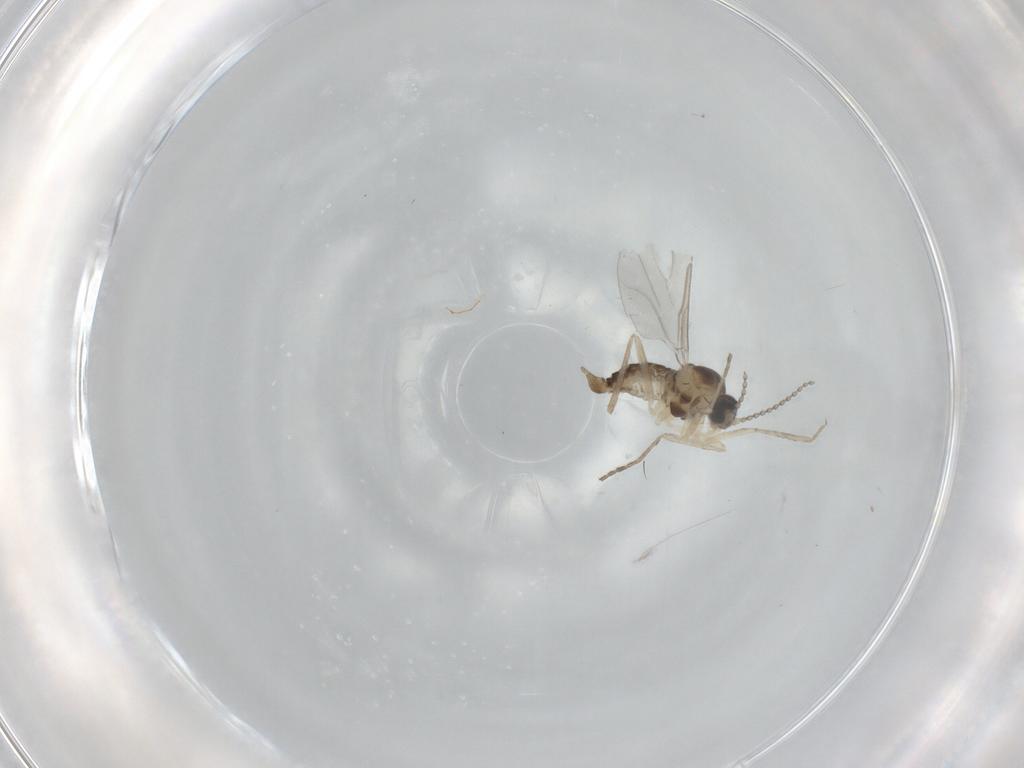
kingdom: Animalia
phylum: Arthropoda
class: Insecta
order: Diptera
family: Cecidomyiidae
